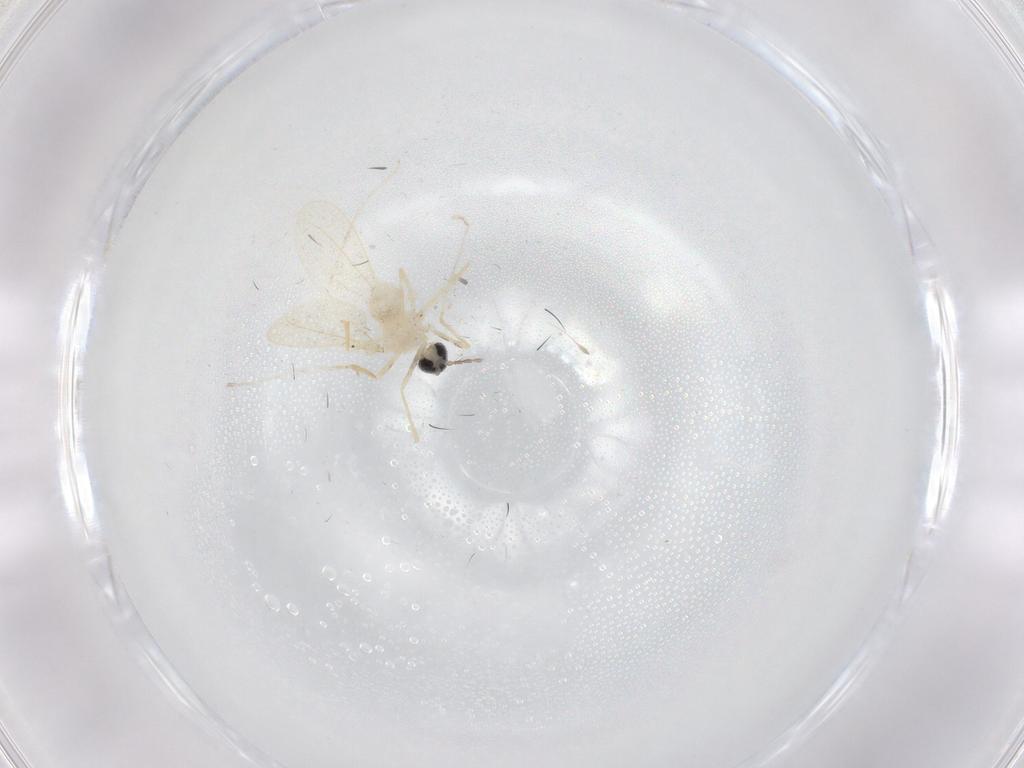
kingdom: Animalia
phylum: Arthropoda
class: Insecta
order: Diptera
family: Cecidomyiidae
